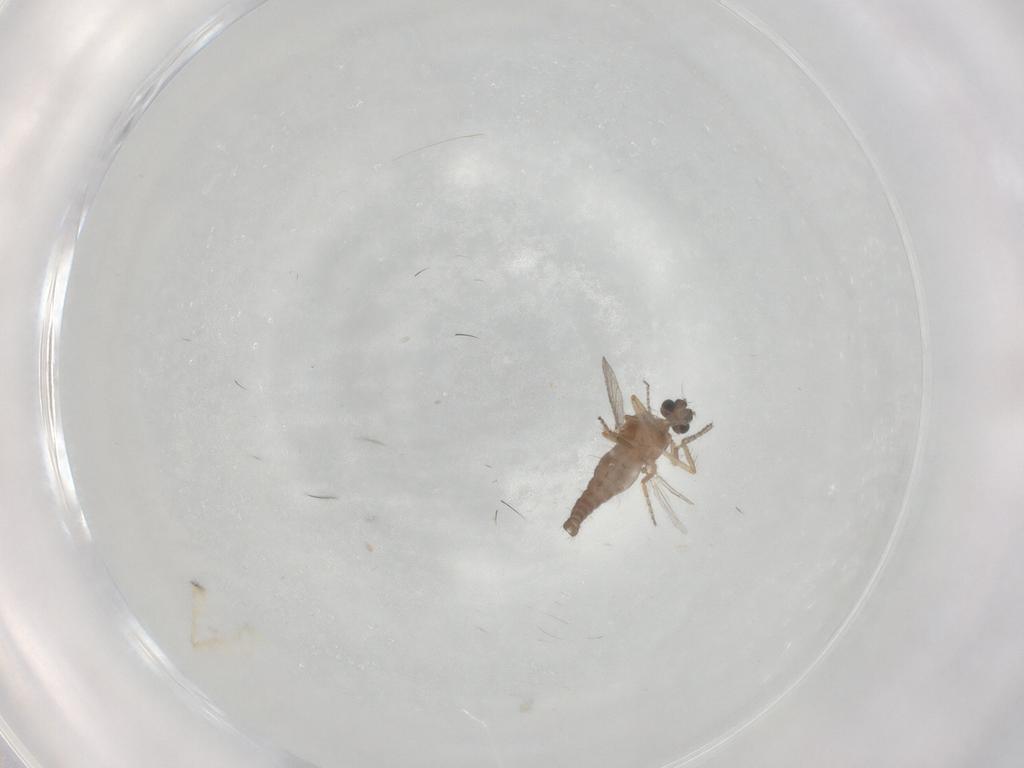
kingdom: Animalia
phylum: Arthropoda
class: Insecta
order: Diptera
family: Ceratopogonidae
